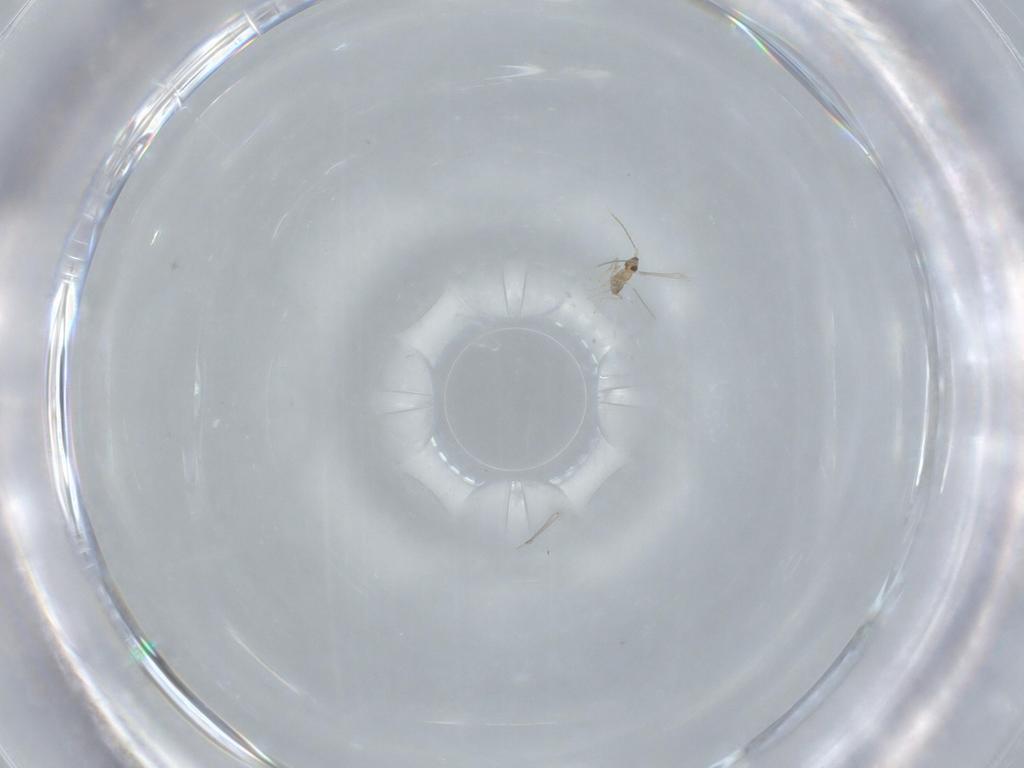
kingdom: Animalia
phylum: Arthropoda
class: Insecta
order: Hymenoptera
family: Mymaridae
